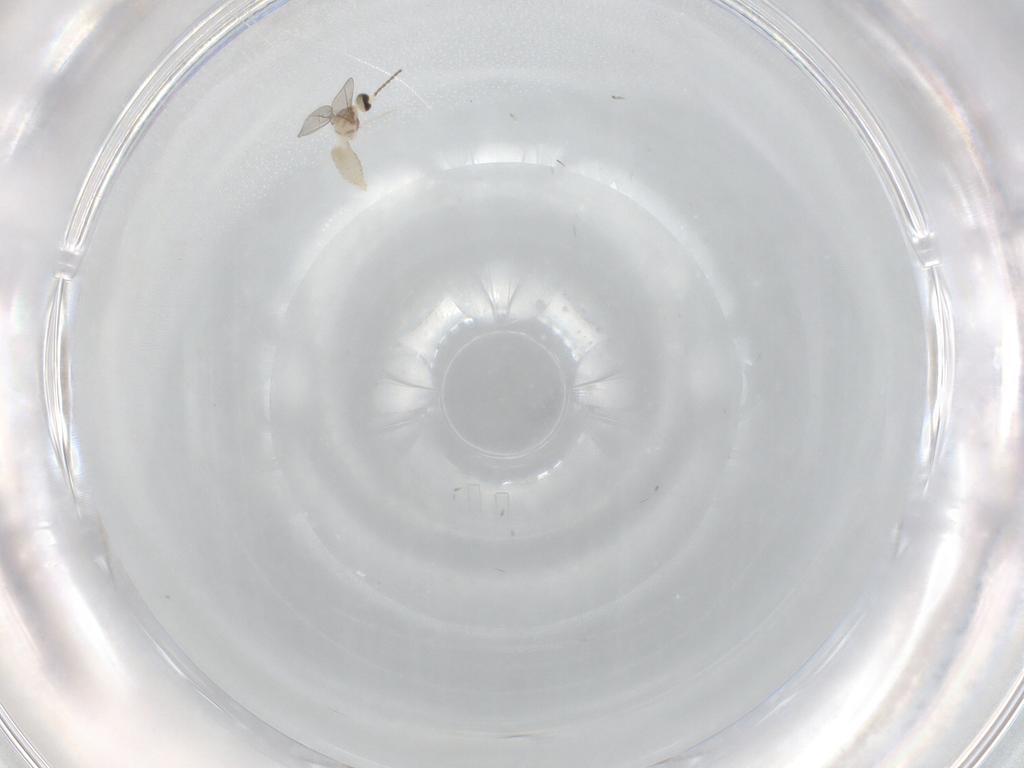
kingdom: Animalia
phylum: Arthropoda
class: Insecta
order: Diptera
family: Cecidomyiidae
